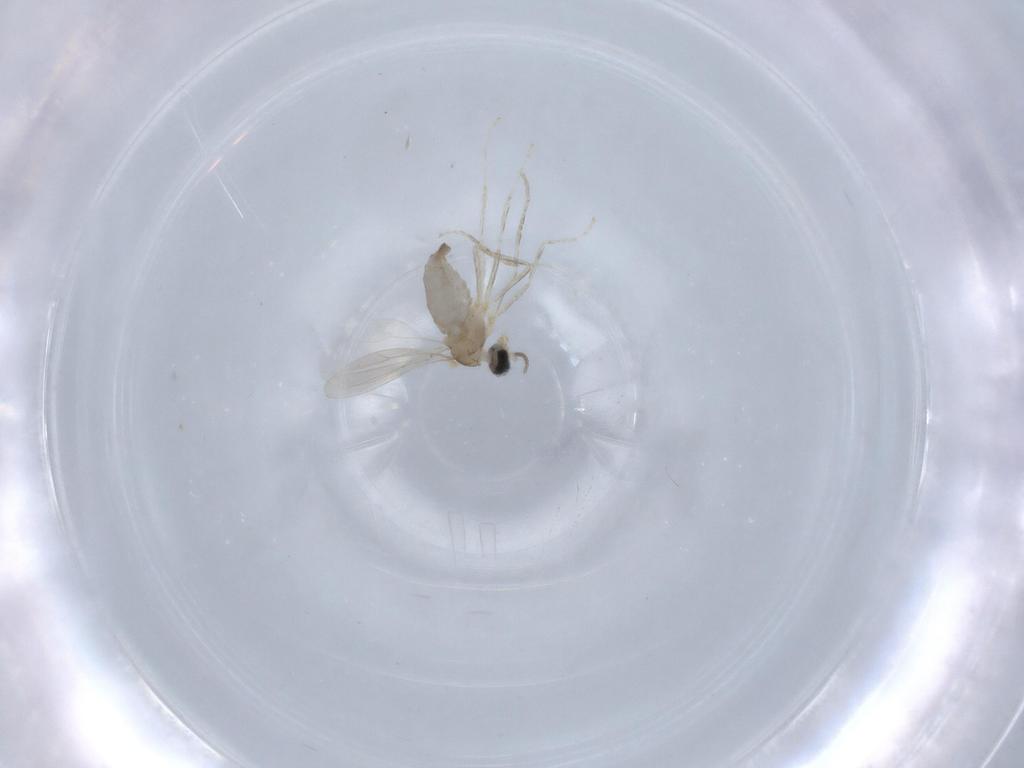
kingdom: Animalia
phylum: Arthropoda
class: Insecta
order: Diptera
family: Cecidomyiidae
